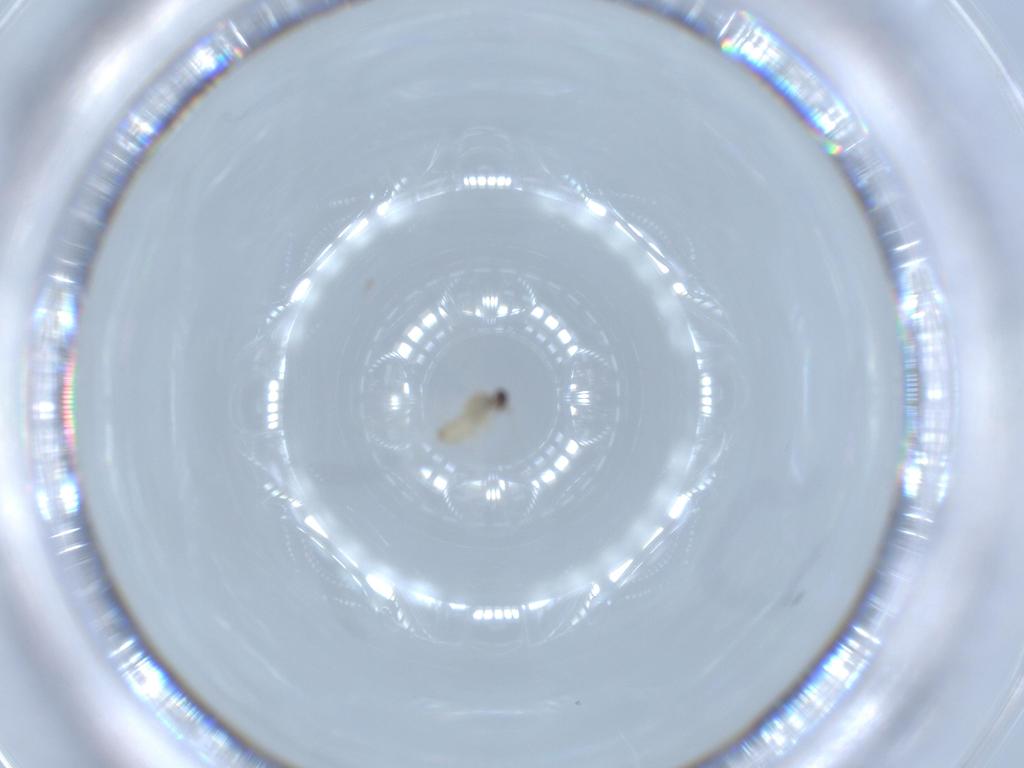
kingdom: Animalia
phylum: Arthropoda
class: Insecta
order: Diptera
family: Cecidomyiidae
